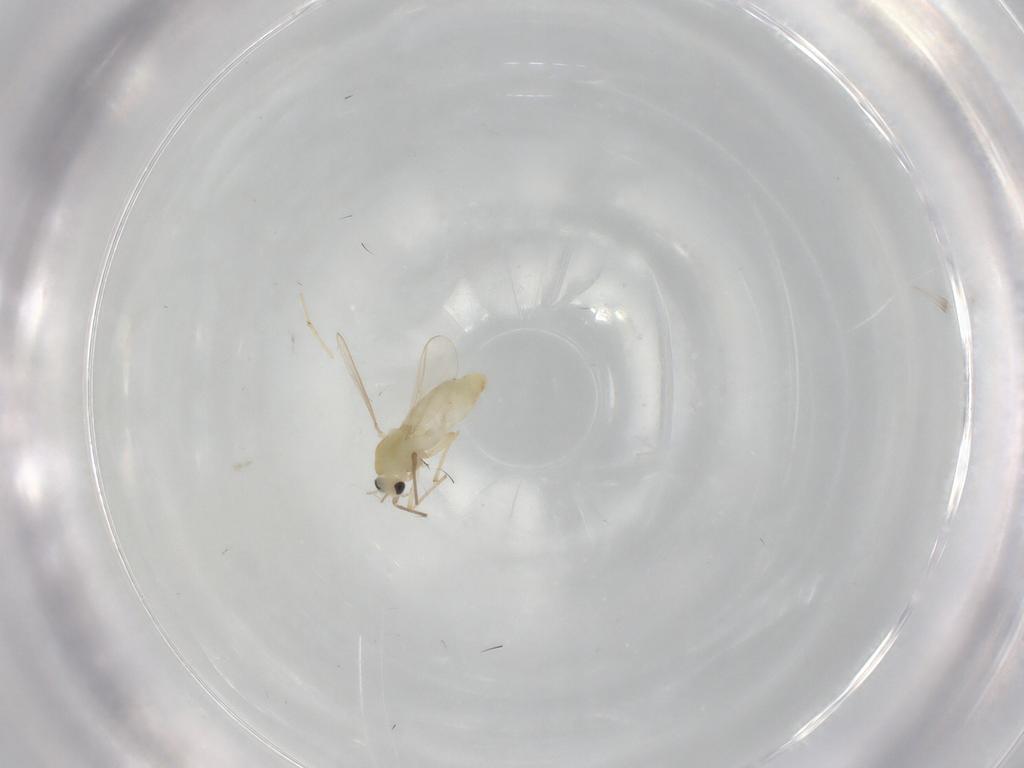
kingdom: Animalia
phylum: Arthropoda
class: Insecta
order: Diptera
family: Chironomidae
